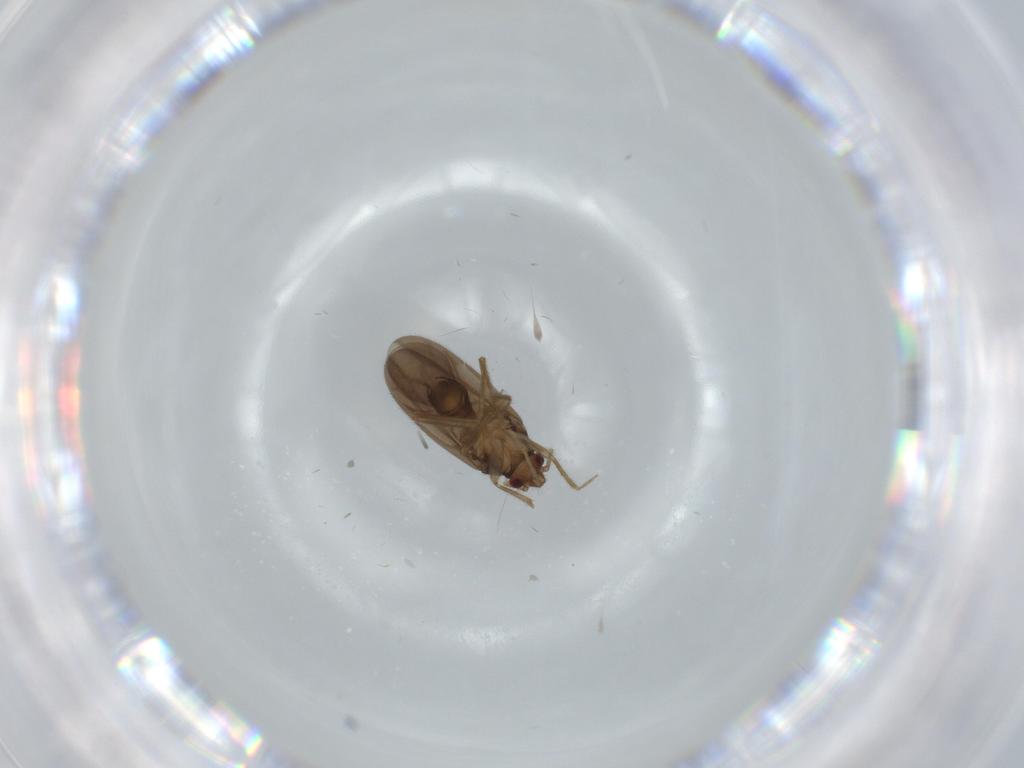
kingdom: Animalia
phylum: Arthropoda
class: Insecta
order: Hemiptera
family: Ceratocombidae
